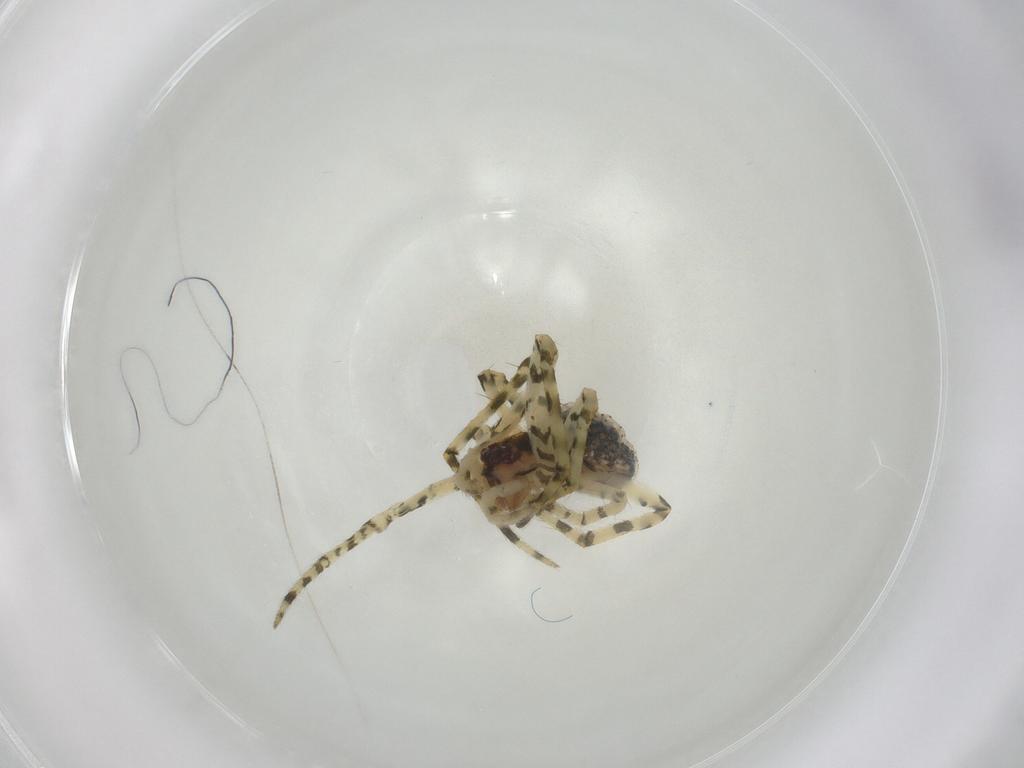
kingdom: Animalia
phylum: Arthropoda
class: Arachnida
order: Araneae
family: Theridiidae
